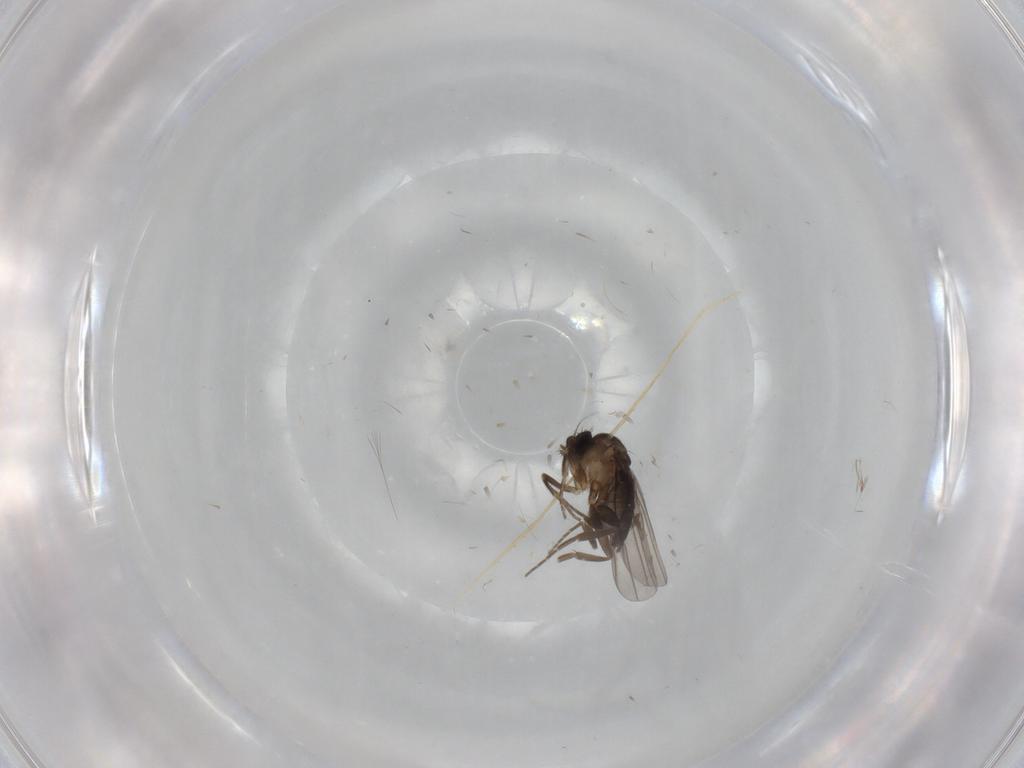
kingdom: Animalia
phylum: Arthropoda
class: Insecta
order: Diptera
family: Phoridae
